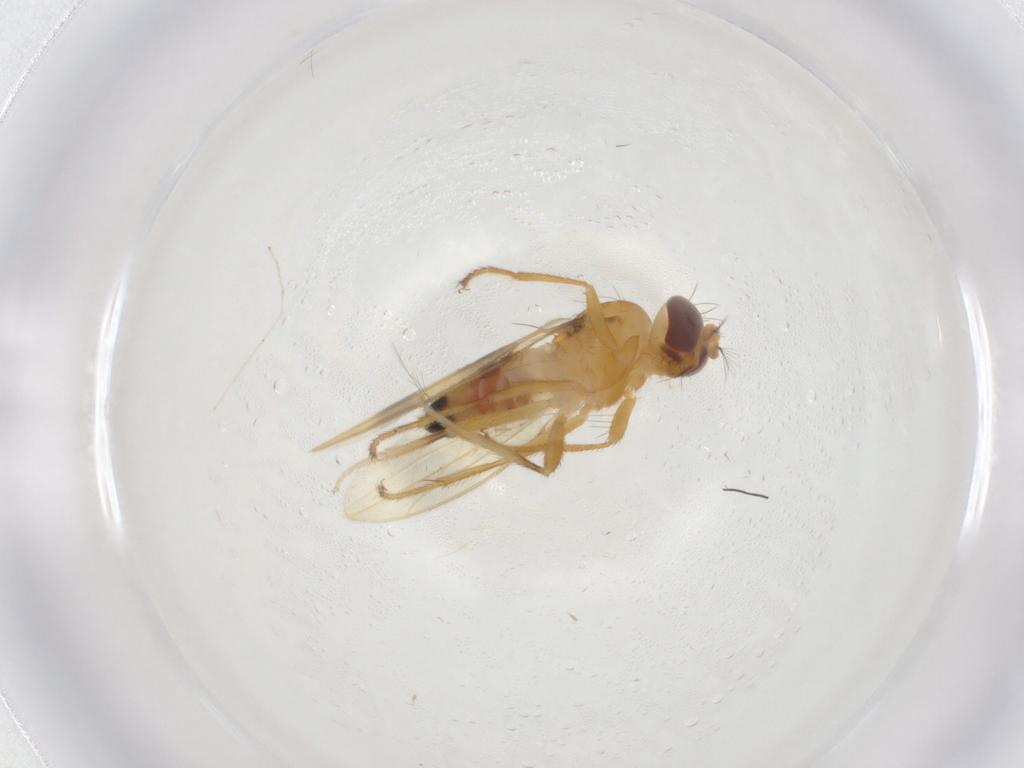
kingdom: Animalia
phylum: Arthropoda
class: Insecta
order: Diptera
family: Periscelididae
